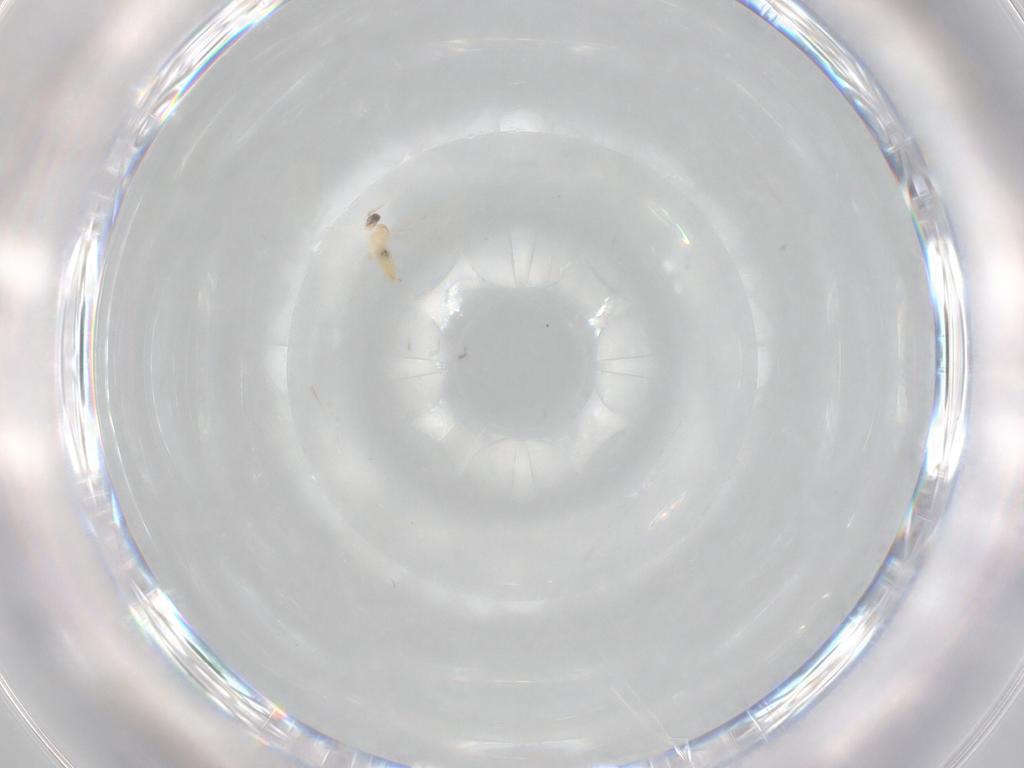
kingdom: Animalia
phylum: Arthropoda
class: Insecta
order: Diptera
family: Cecidomyiidae
